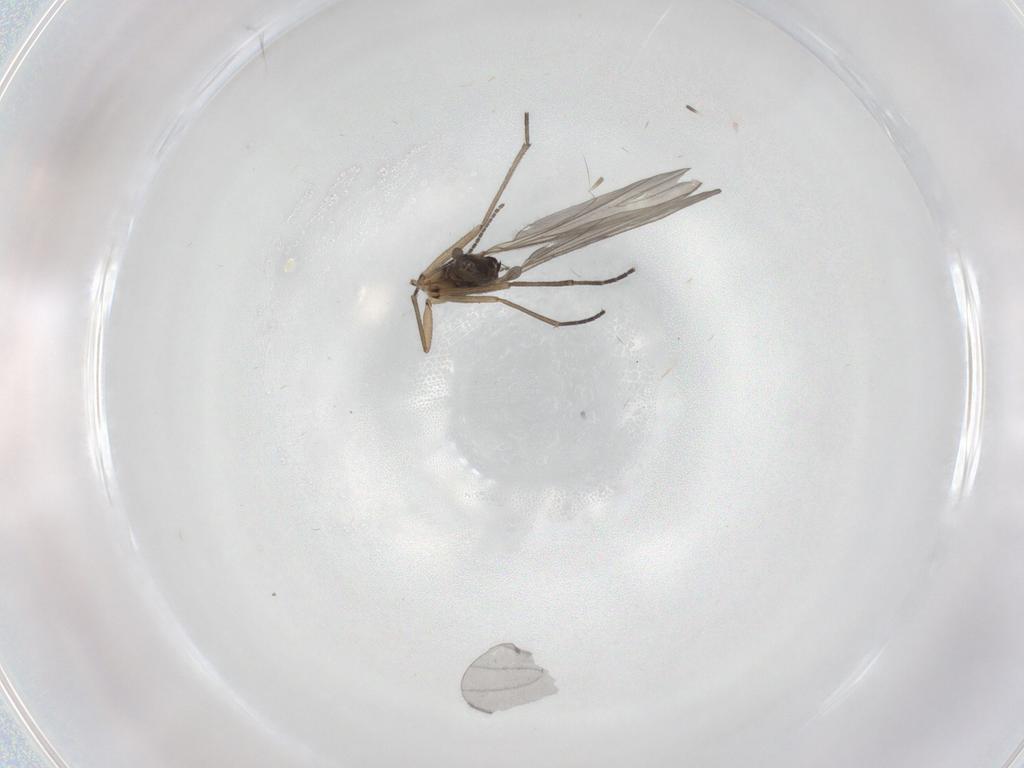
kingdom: Animalia
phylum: Arthropoda
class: Insecta
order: Diptera
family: Sciaridae
